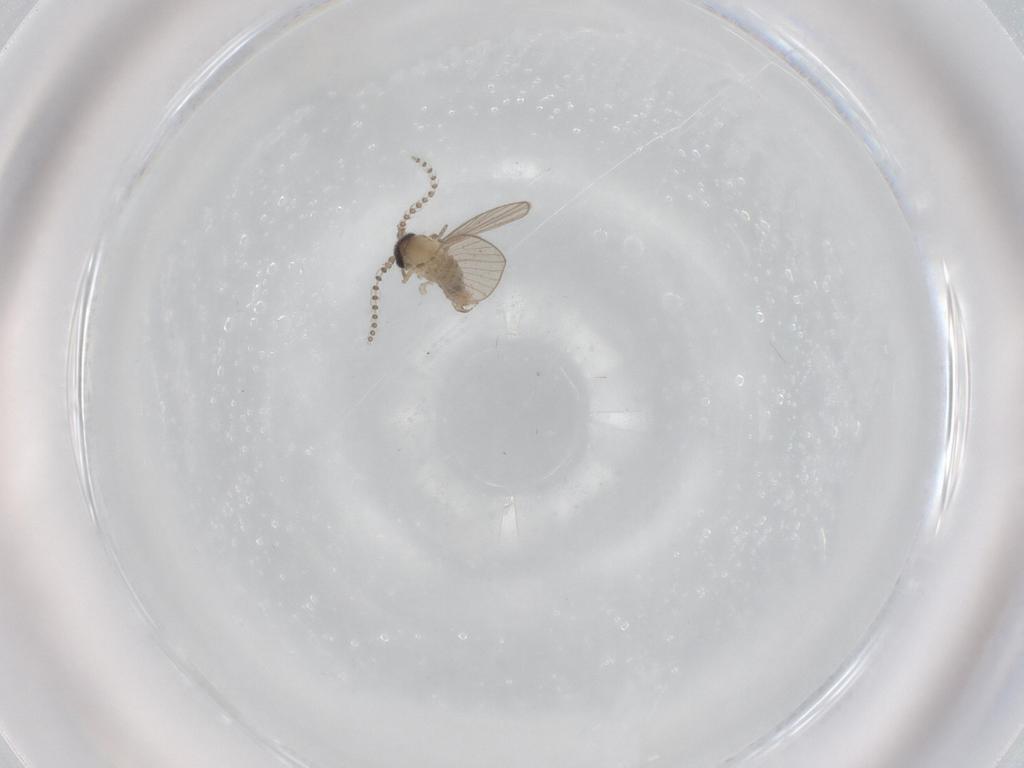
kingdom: Animalia
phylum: Arthropoda
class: Insecta
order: Diptera
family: Psychodidae
